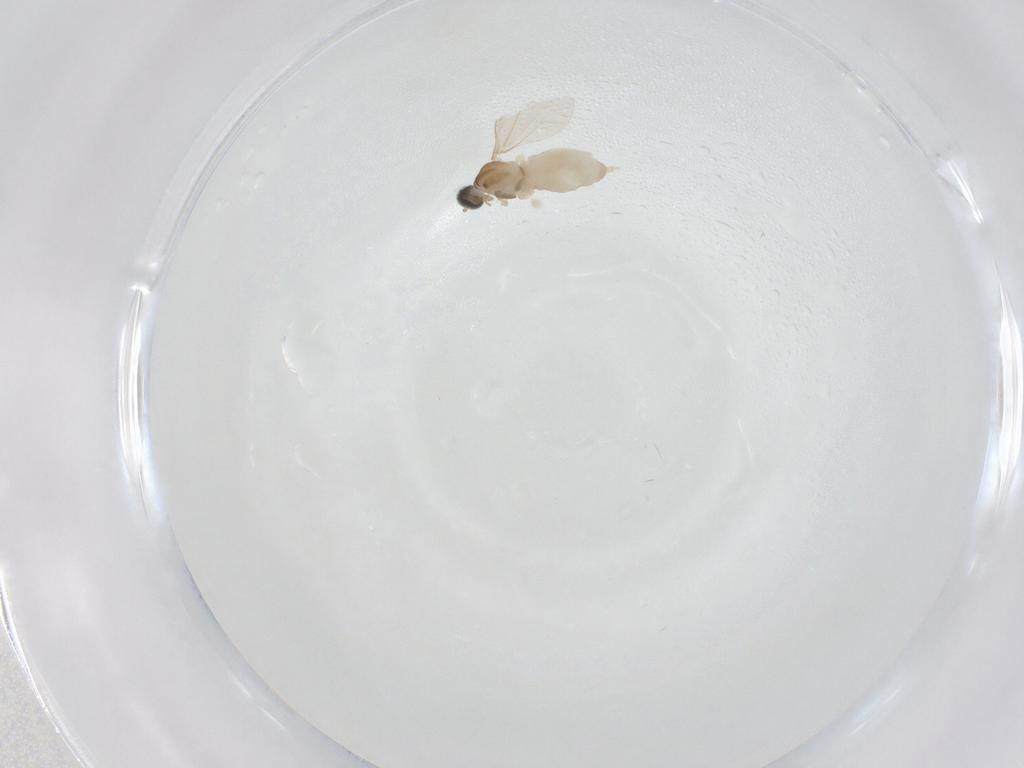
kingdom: Animalia
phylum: Arthropoda
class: Insecta
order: Diptera
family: Cecidomyiidae
